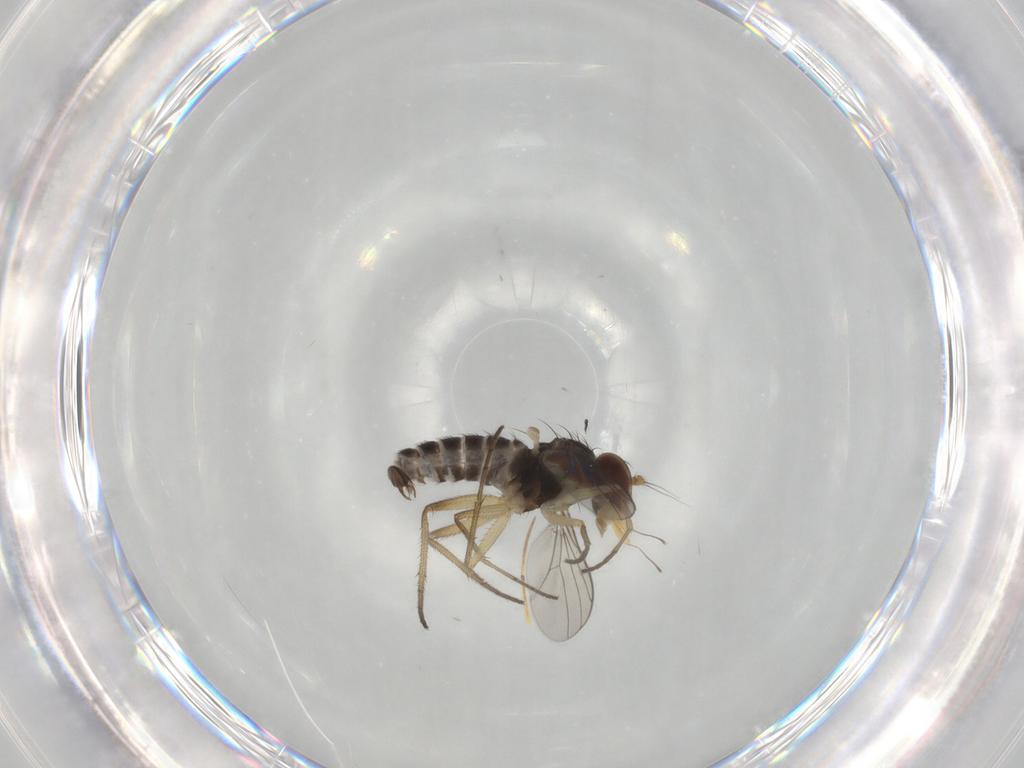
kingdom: Animalia
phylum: Arthropoda
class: Insecta
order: Diptera
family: Dolichopodidae
